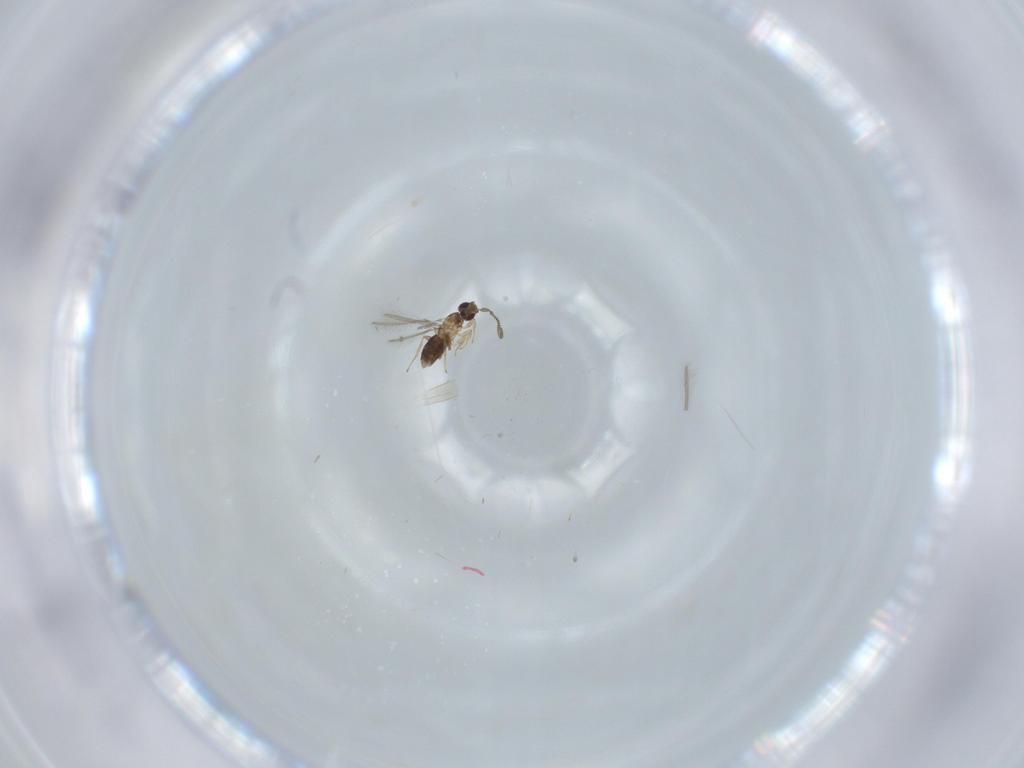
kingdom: Animalia
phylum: Arthropoda
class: Insecta
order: Hymenoptera
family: Mymaridae
